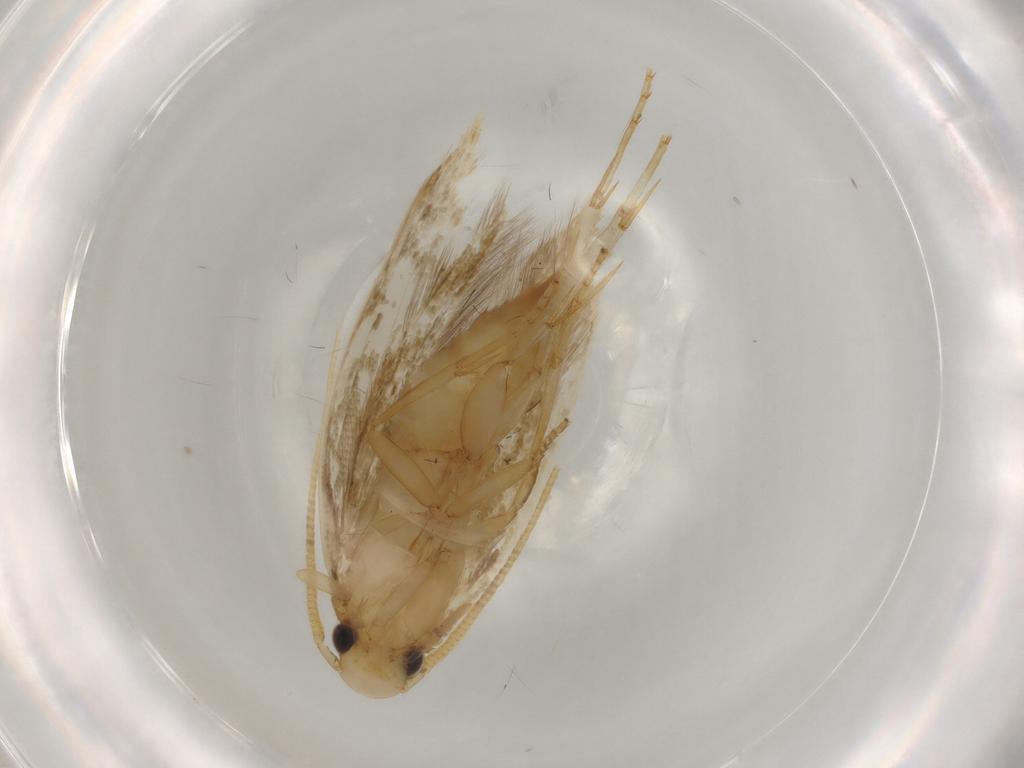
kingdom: Animalia
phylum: Arthropoda
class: Insecta
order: Lepidoptera
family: Tineidae
